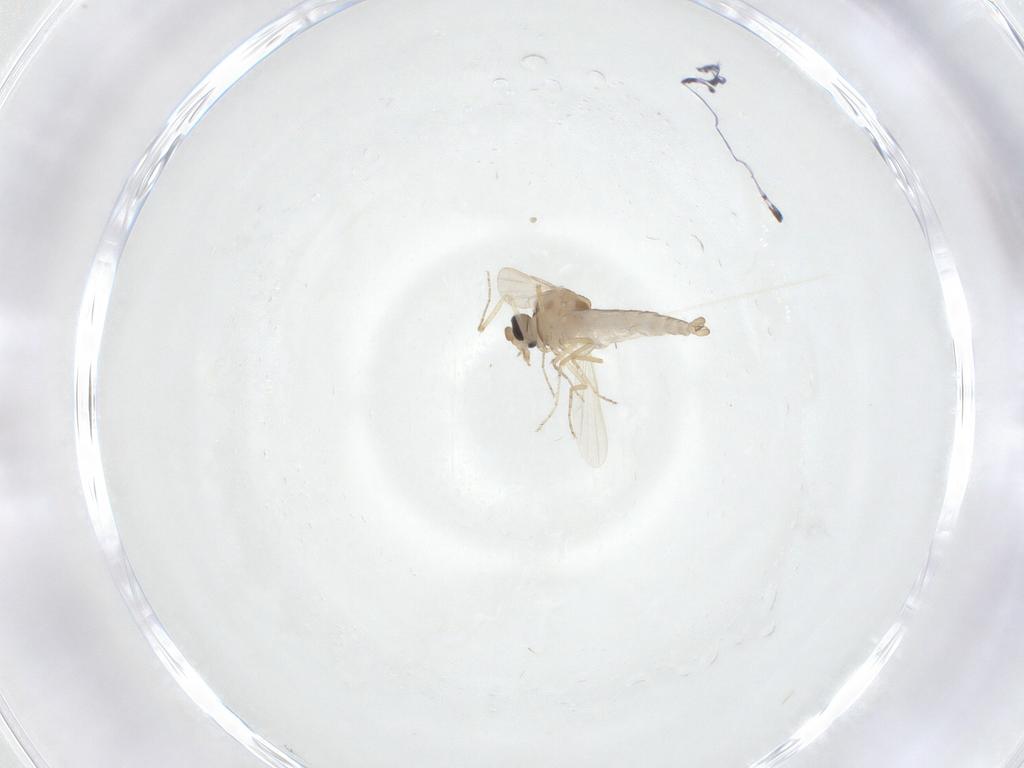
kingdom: Animalia
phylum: Arthropoda
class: Insecta
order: Diptera
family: Ceratopogonidae
